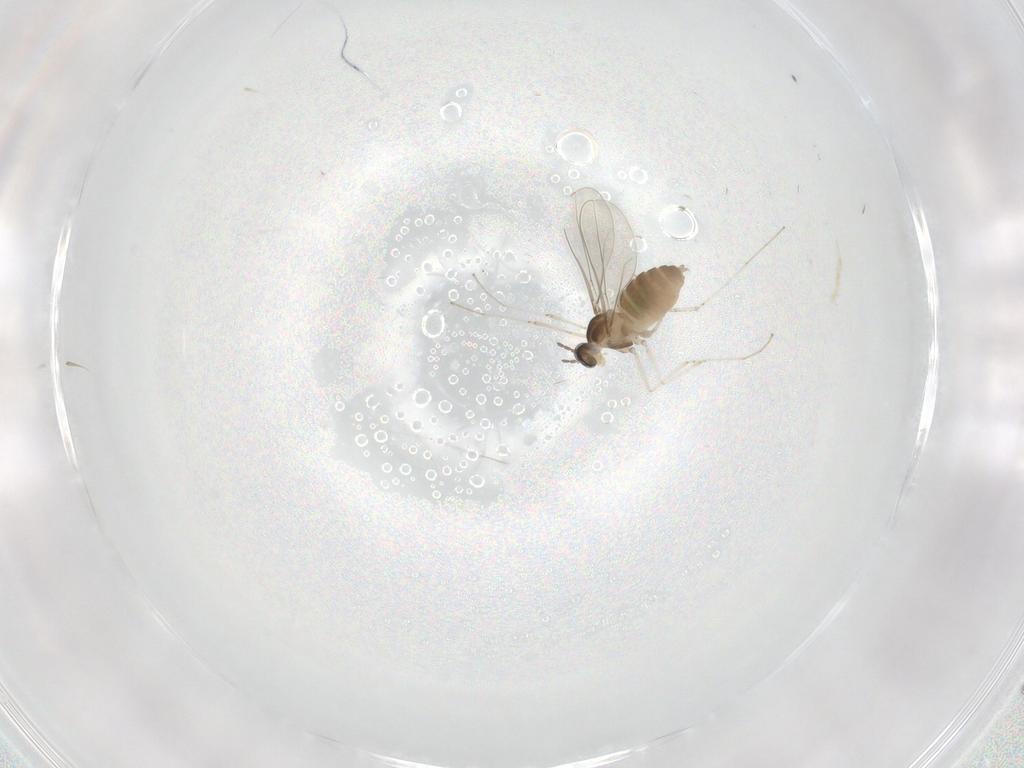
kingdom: Animalia
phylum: Arthropoda
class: Insecta
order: Diptera
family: Cecidomyiidae
